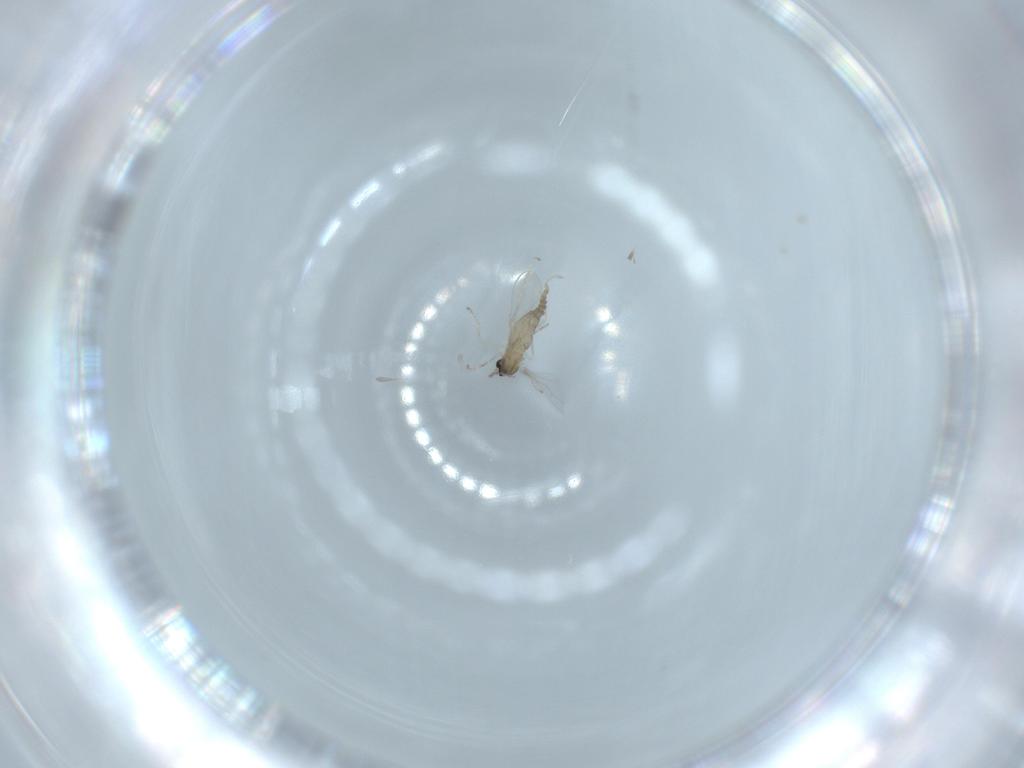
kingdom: Animalia
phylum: Arthropoda
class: Insecta
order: Diptera
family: Cecidomyiidae
